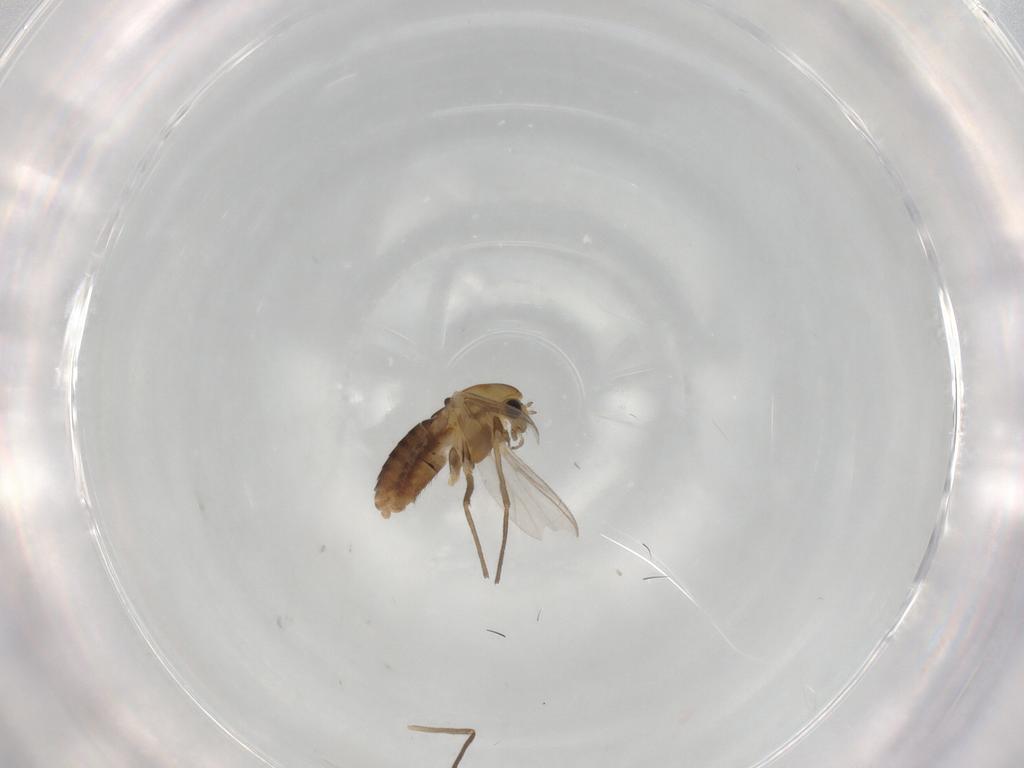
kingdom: Animalia
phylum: Arthropoda
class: Insecta
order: Diptera
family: Chironomidae
